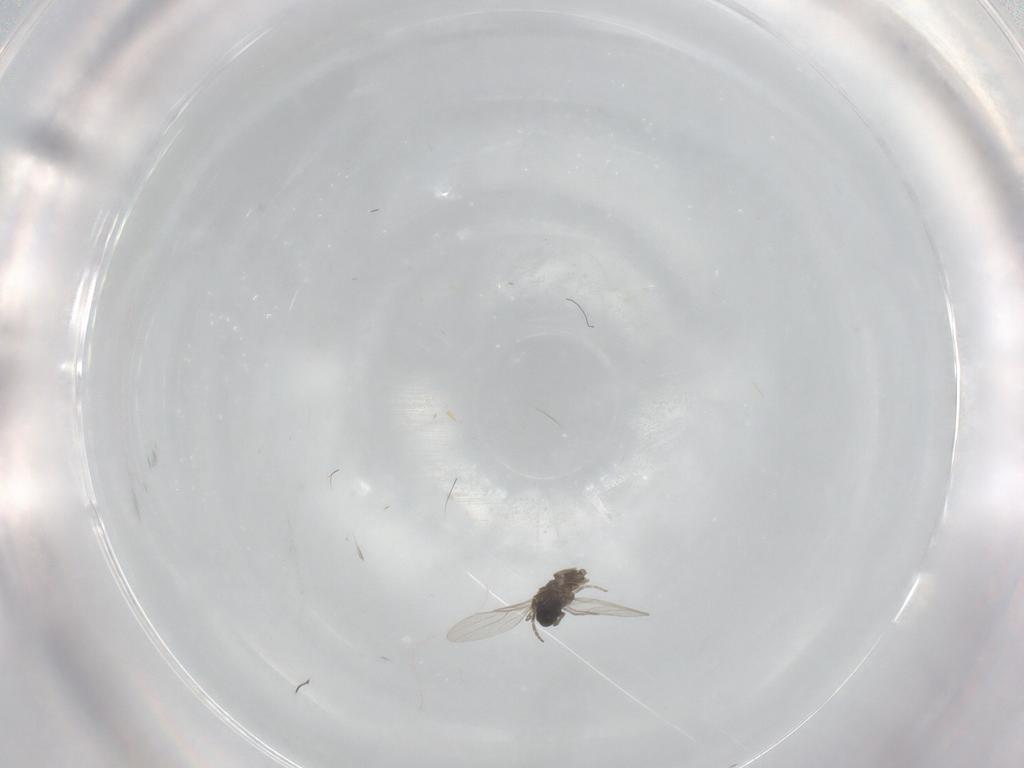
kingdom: Animalia
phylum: Arthropoda
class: Insecta
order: Diptera
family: Phoridae
